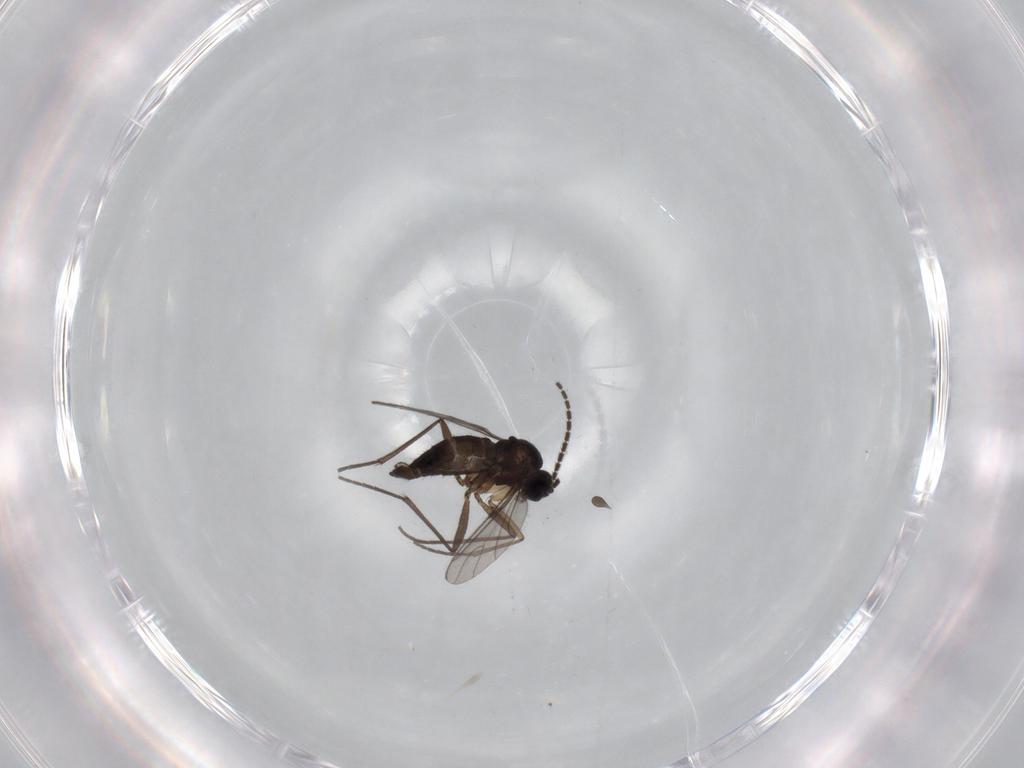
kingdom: Animalia
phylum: Arthropoda
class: Insecta
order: Diptera
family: Sciaridae
